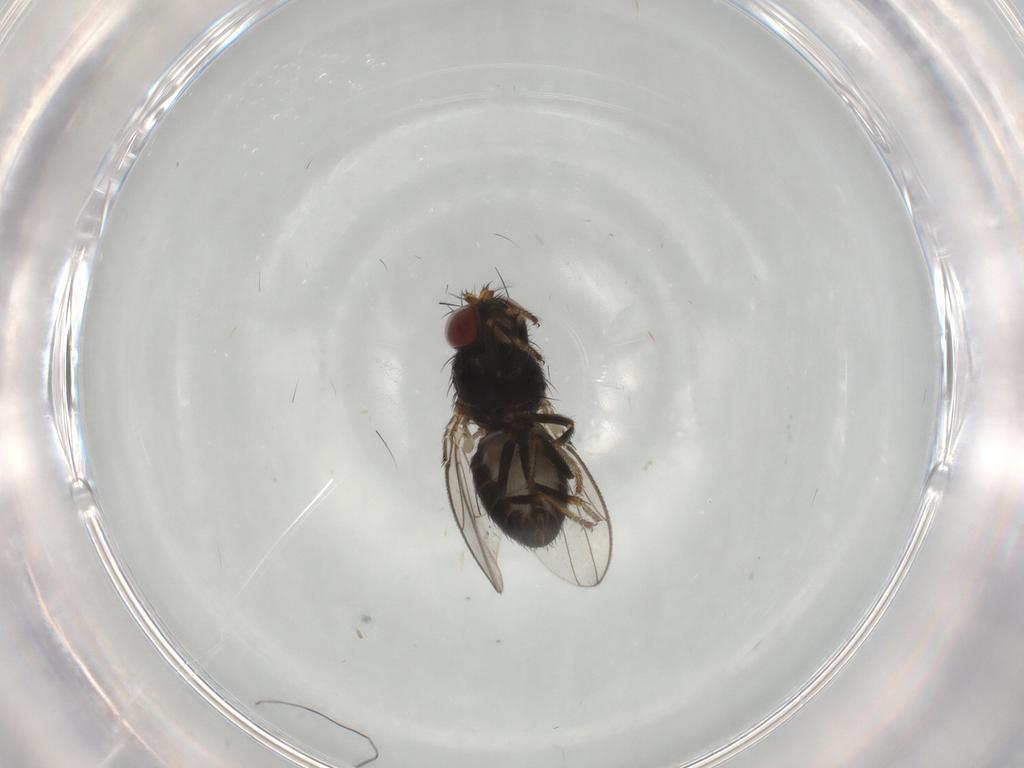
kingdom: Animalia
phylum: Arthropoda
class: Insecta
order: Diptera
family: Ephydridae
